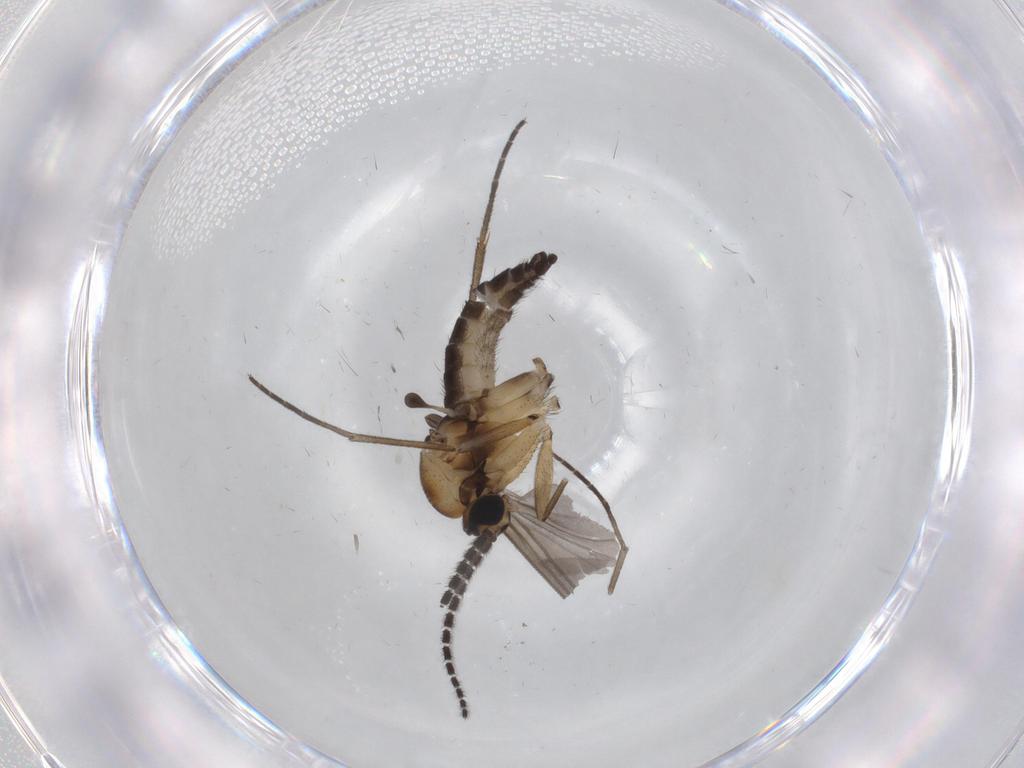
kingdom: Animalia
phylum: Arthropoda
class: Insecta
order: Diptera
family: Sciaridae
